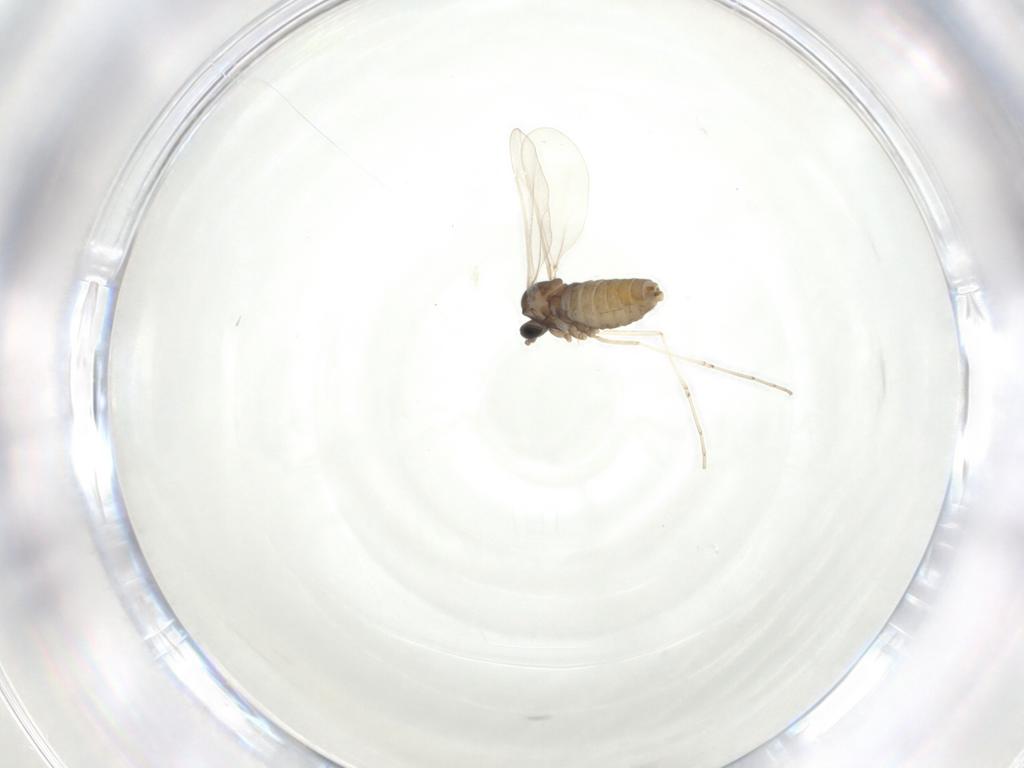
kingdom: Animalia
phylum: Arthropoda
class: Insecta
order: Diptera
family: Cecidomyiidae
